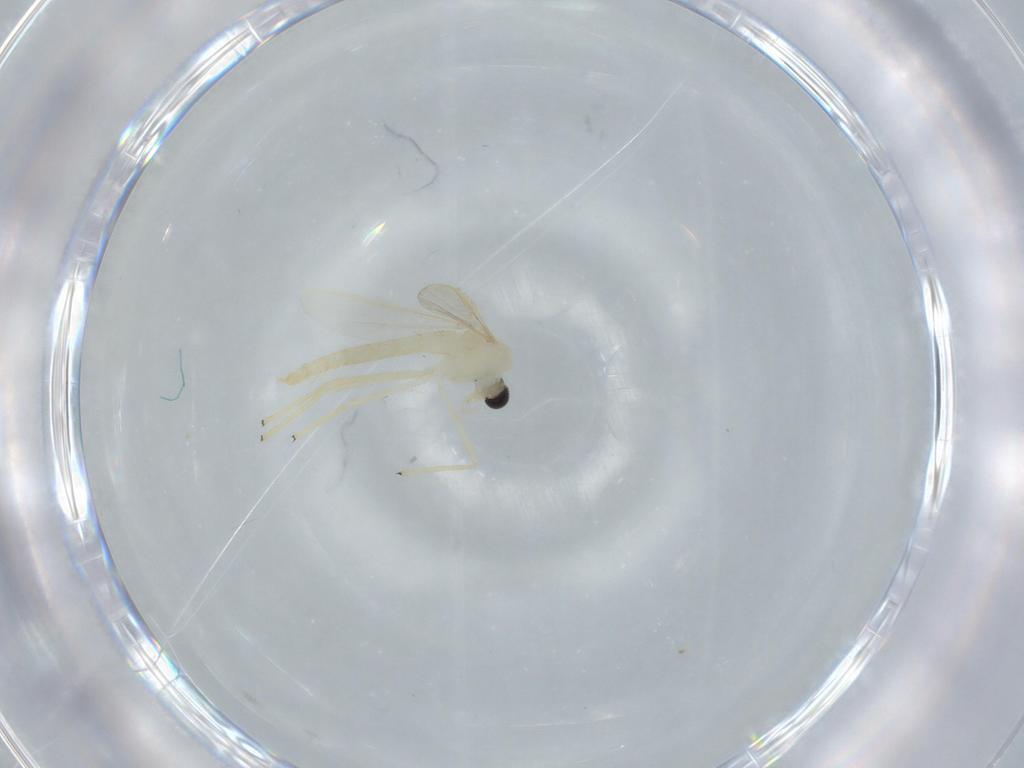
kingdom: Animalia
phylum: Arthropoda
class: Insecta
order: Diptera
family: Chironomidae
